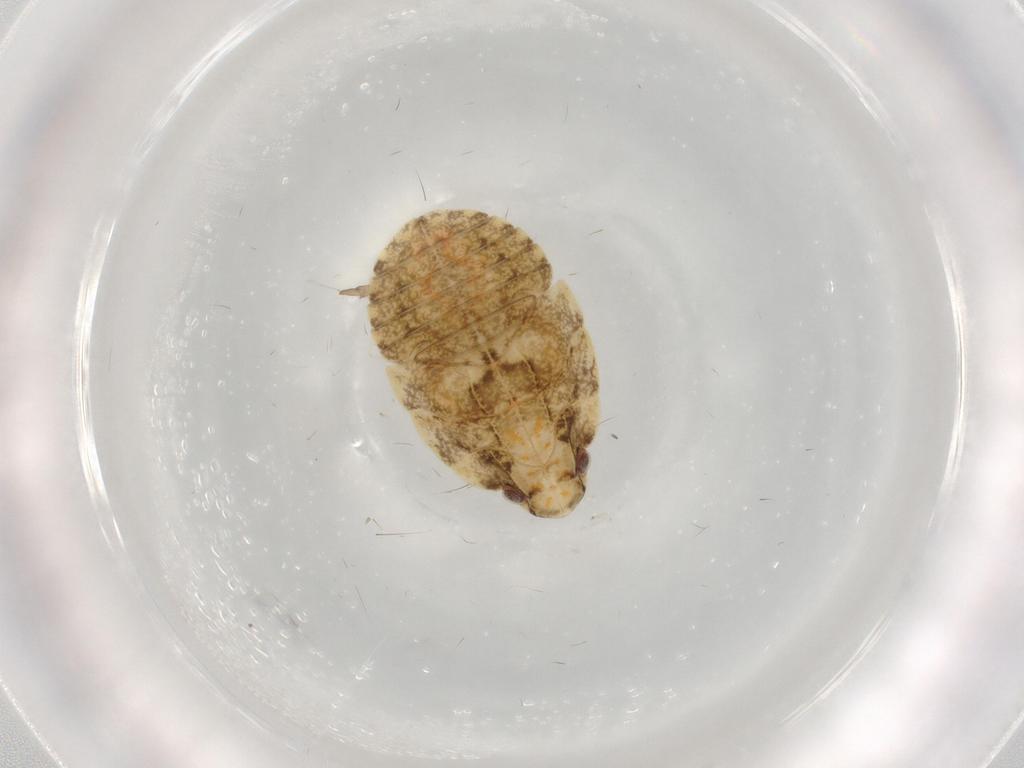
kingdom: Animalia
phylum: Arthropoda
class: Insecta
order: Hemiptera
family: Flatidae
